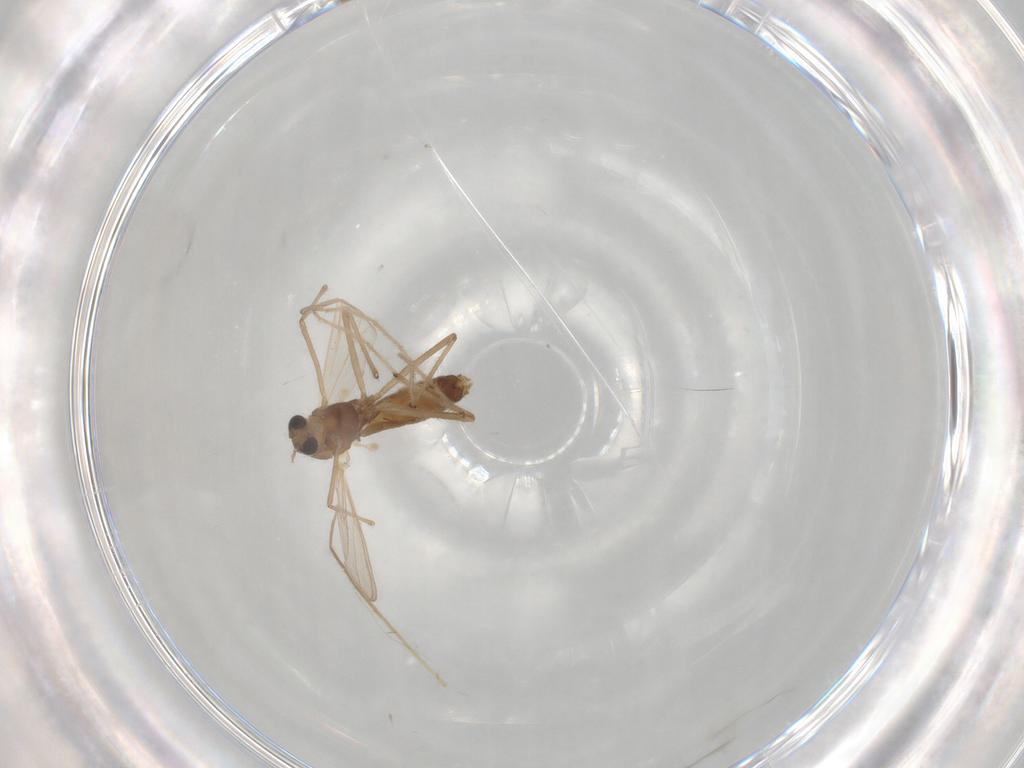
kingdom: Animalia
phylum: Arthropoda
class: Insecta
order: Diptera
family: Chironomidae
